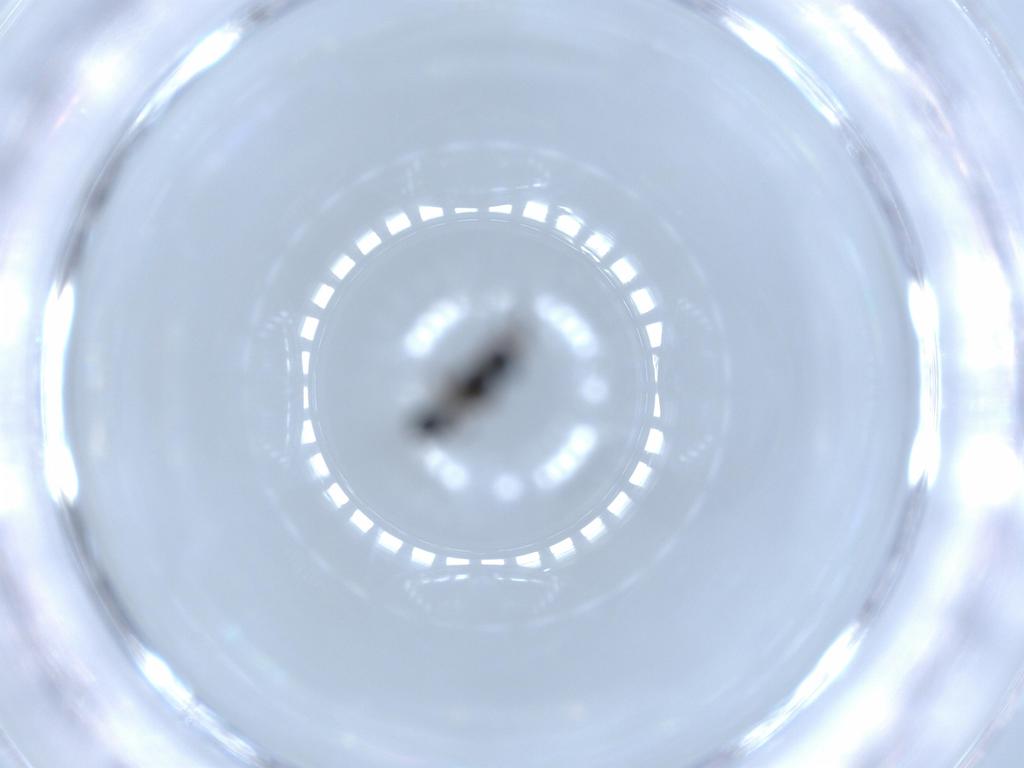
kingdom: Animalia
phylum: Arthropoda
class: Insecta
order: Hymenoptera
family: Platygastridae
